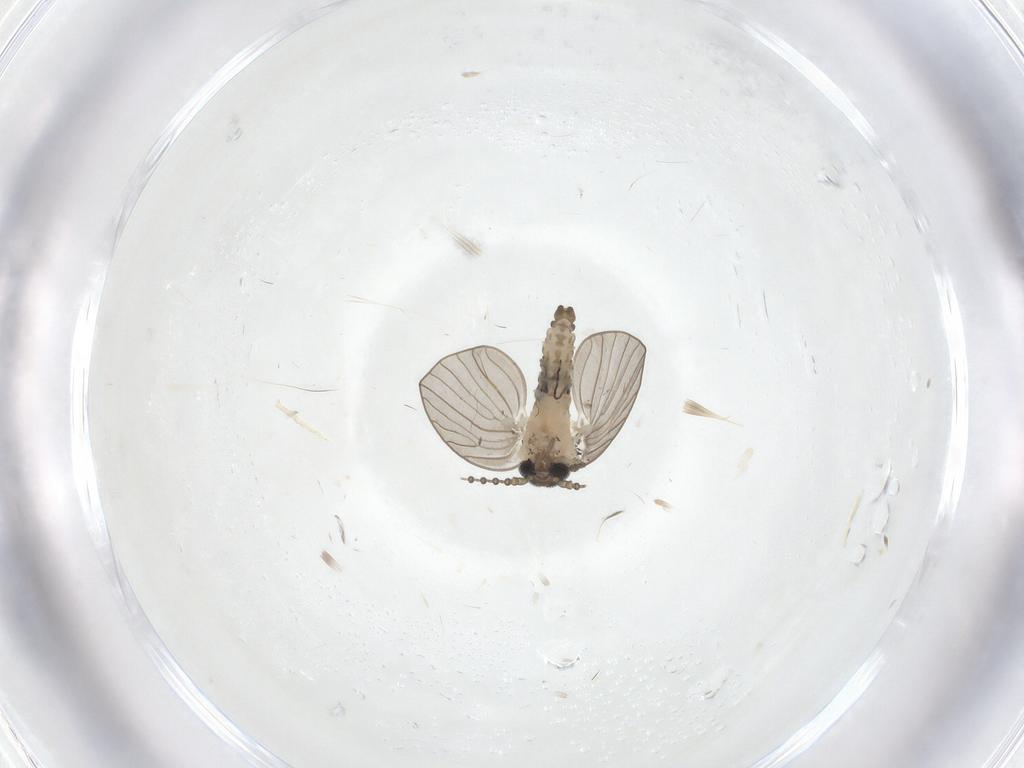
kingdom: Animalia
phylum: Arthropoda
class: Insecta
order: Diptera
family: Psychodidae
